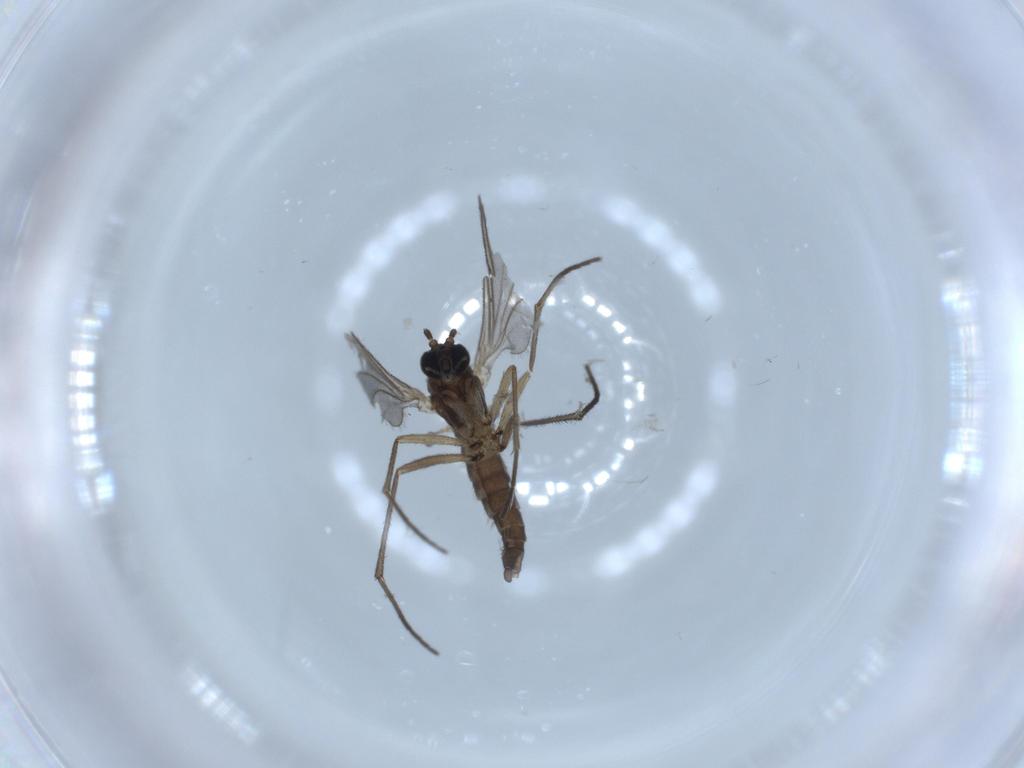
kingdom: Animalia
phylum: Arthropoda
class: Insecta
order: Diptera
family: Sciaridae
